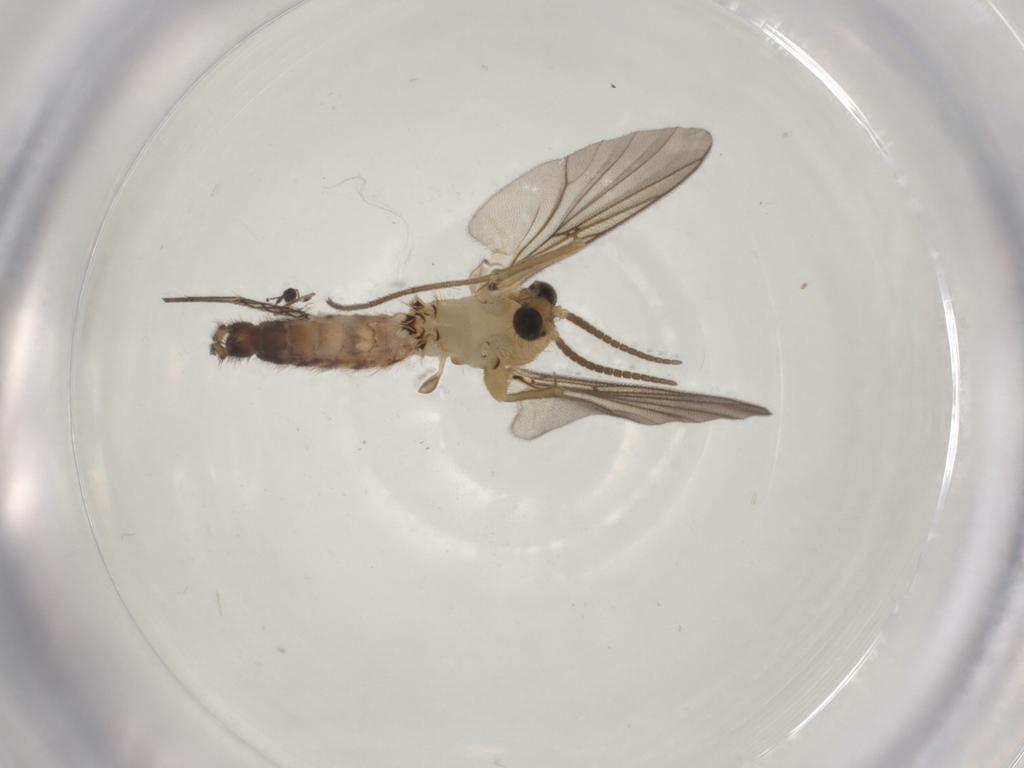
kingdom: Animalia
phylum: Arthropoda
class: Insecta
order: Diptera
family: Mycetophilidae
